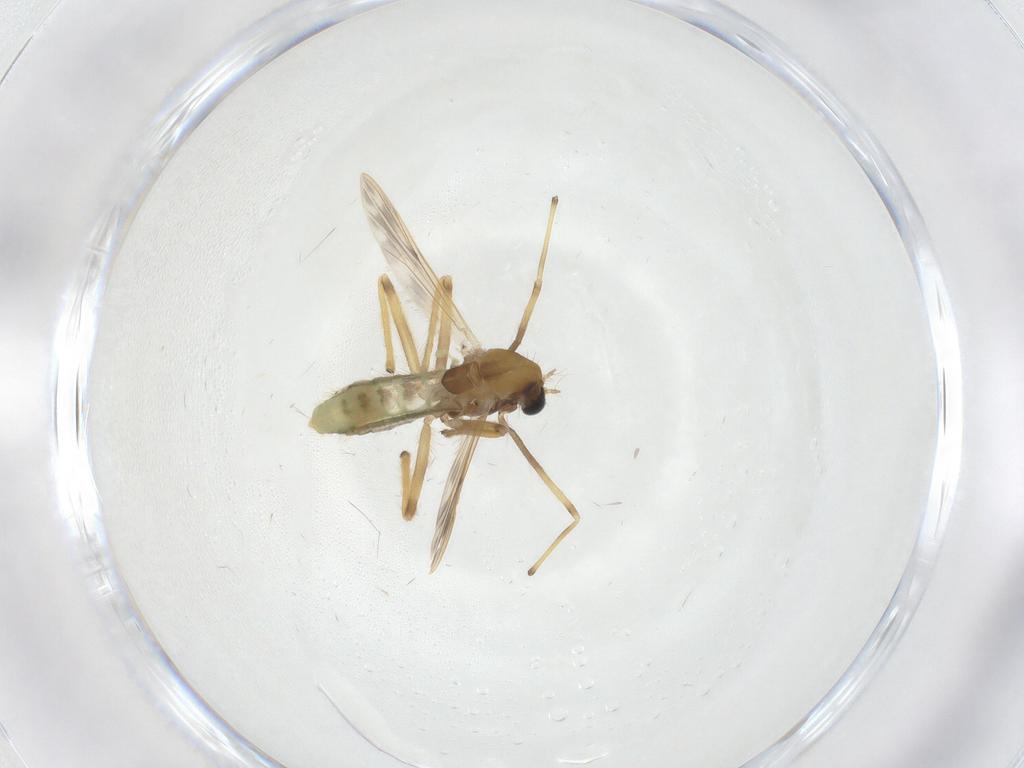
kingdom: Animalia
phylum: Arthropoda
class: Insecta
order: Diptera
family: Chironomidae
